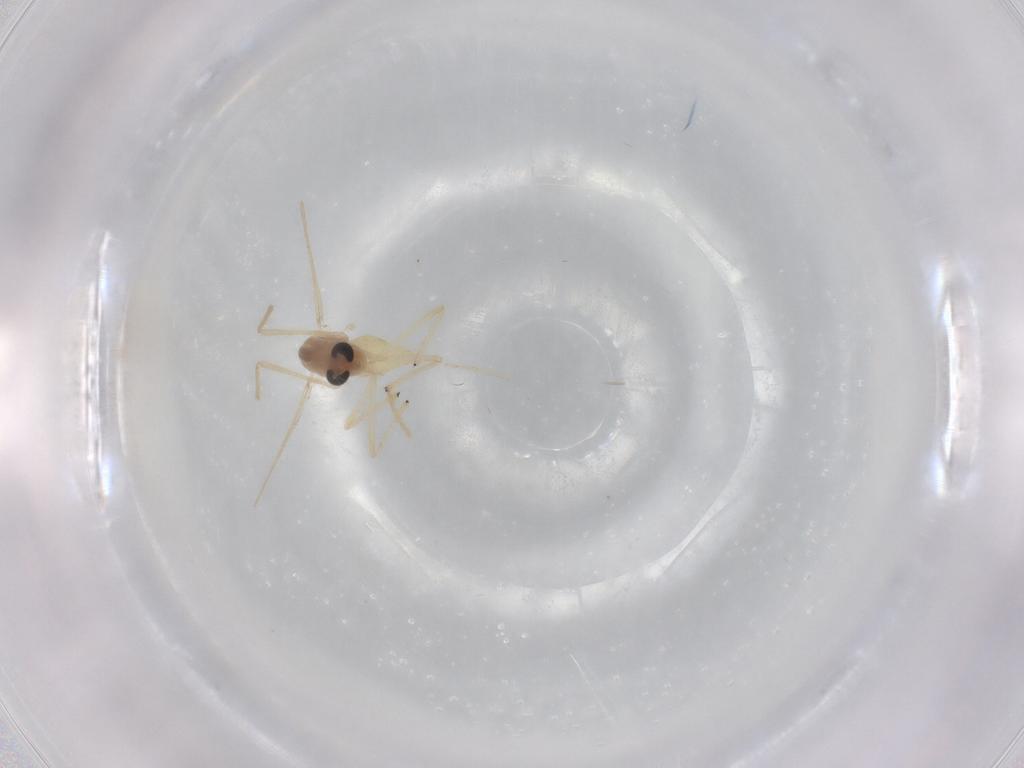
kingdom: Animalia
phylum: Arthropoda
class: Insecta
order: Diptera
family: Chironomidae
